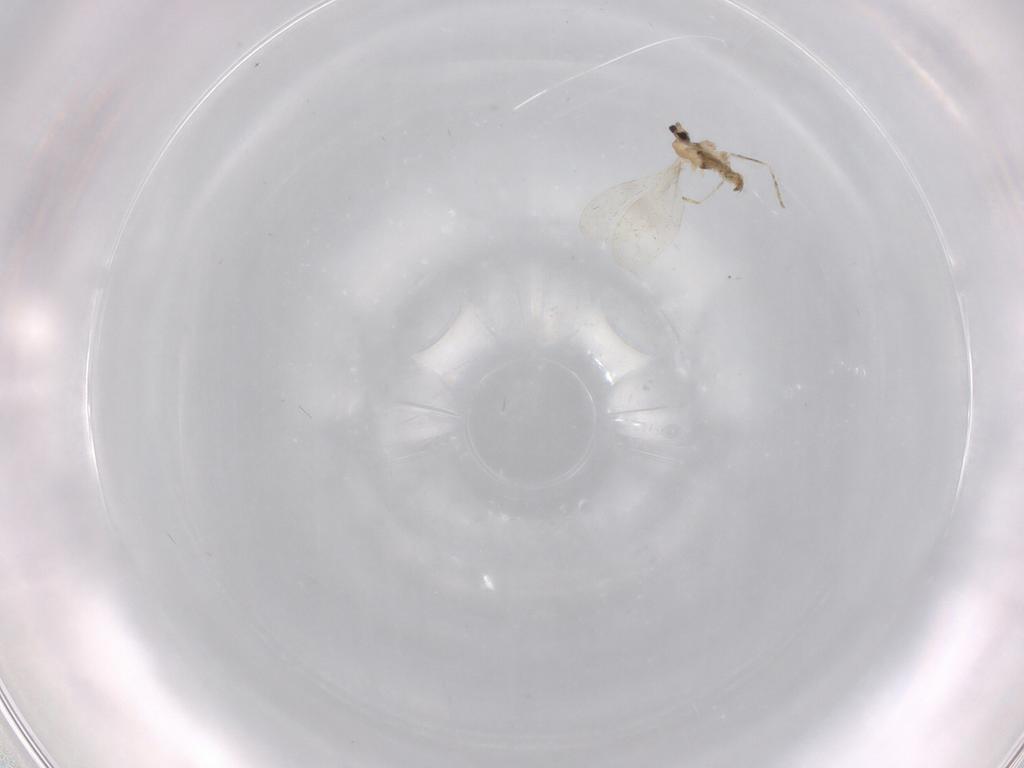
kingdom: Animalia
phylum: Arthropoda
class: Insecta
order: Diptera
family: Cecidomyiidae
